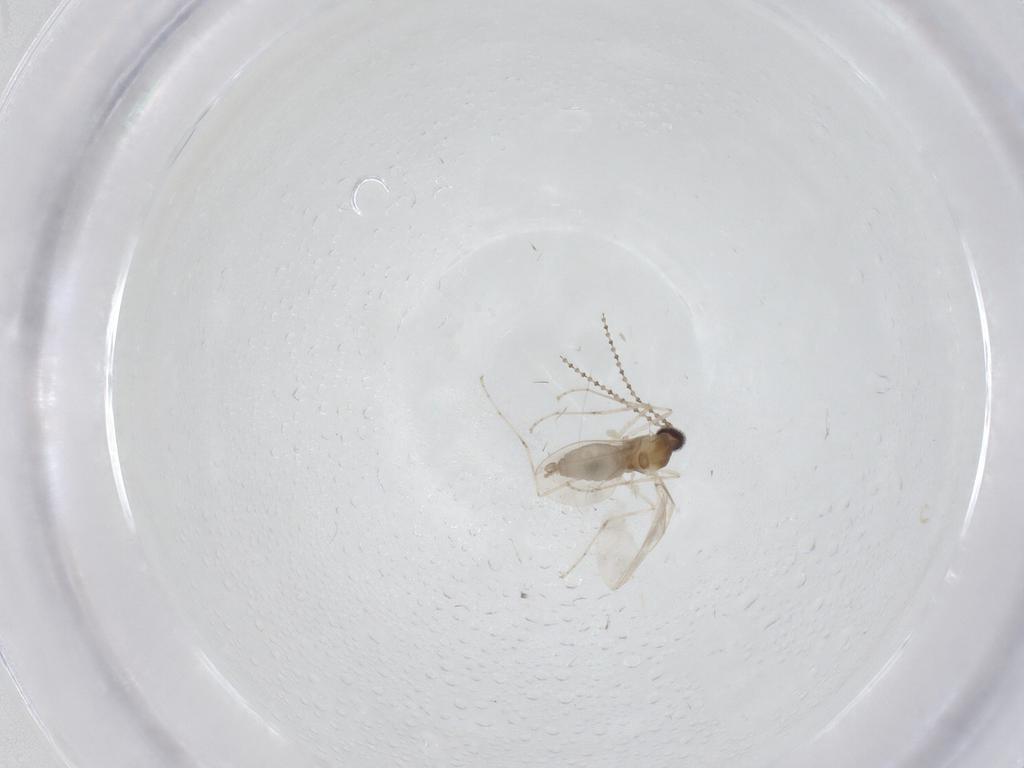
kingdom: Animalia
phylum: Arthropoda
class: Insecta
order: Diptera
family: Cecidomyiidae
